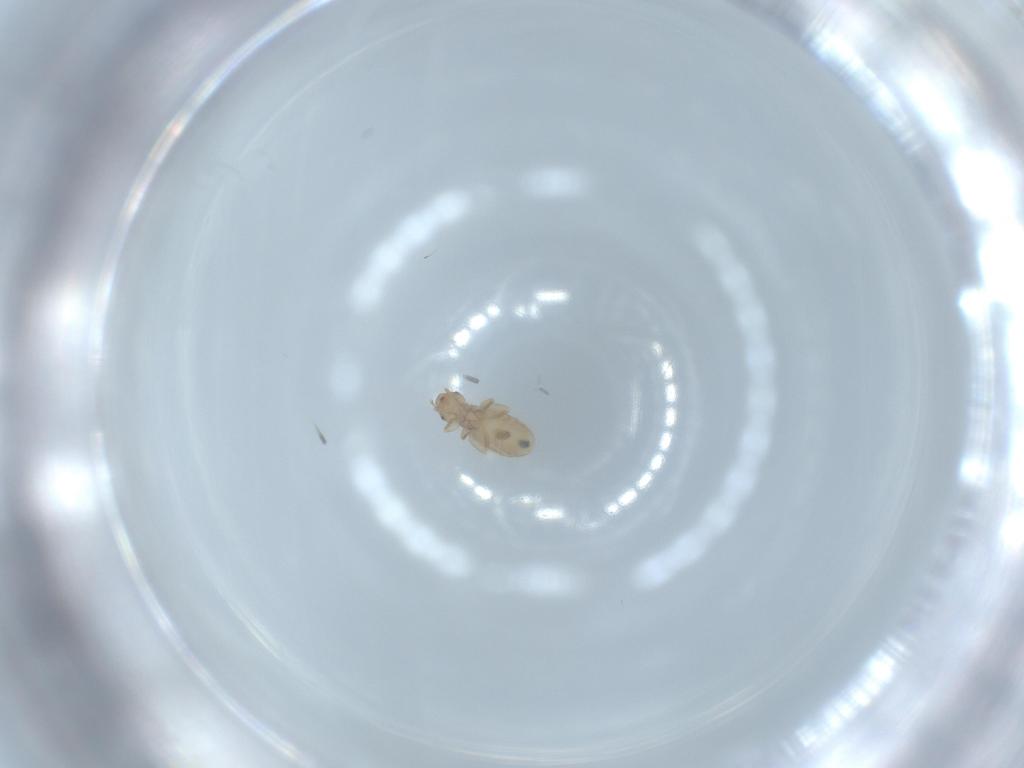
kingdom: Animalia
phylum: Arthropoda
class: Insecta
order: Psocodea
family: Liposcelididae
